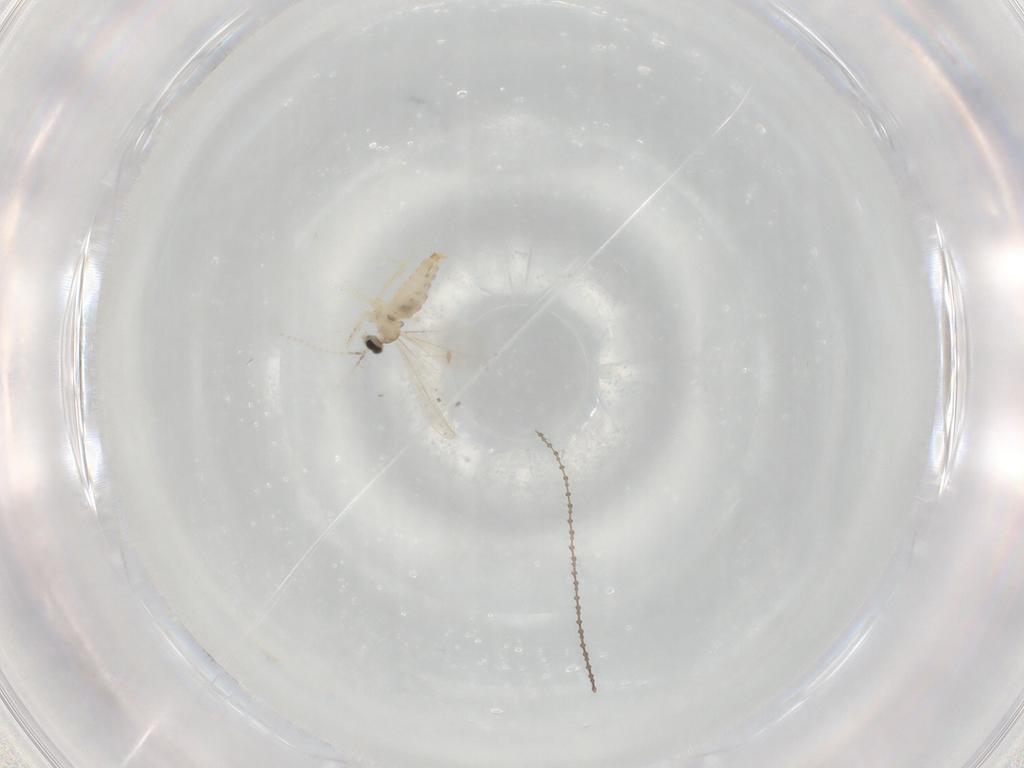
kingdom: Animalia
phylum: Arthropoda
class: Insecta
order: Diptera
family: Cecidomyiidae
